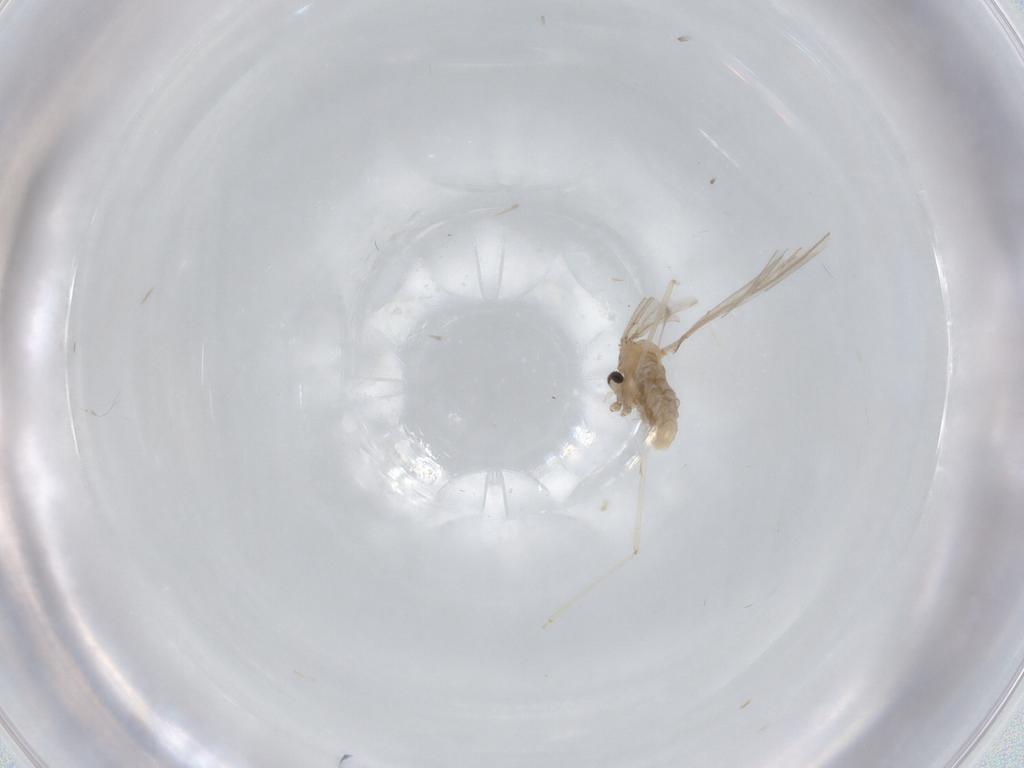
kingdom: Animalia
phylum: Arthropoda
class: Insecta
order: Diptera
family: Cecidomyiidae
